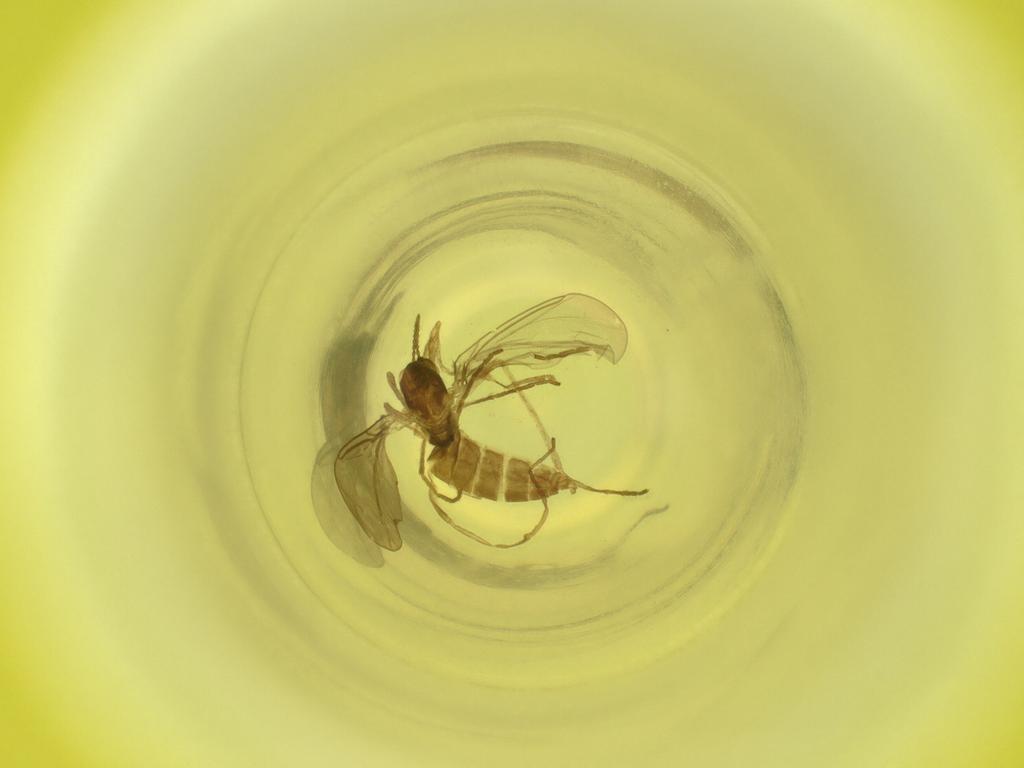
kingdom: Animalia
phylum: Arthropoda
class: Insecta
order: Diptera
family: Cecidomyiidae
